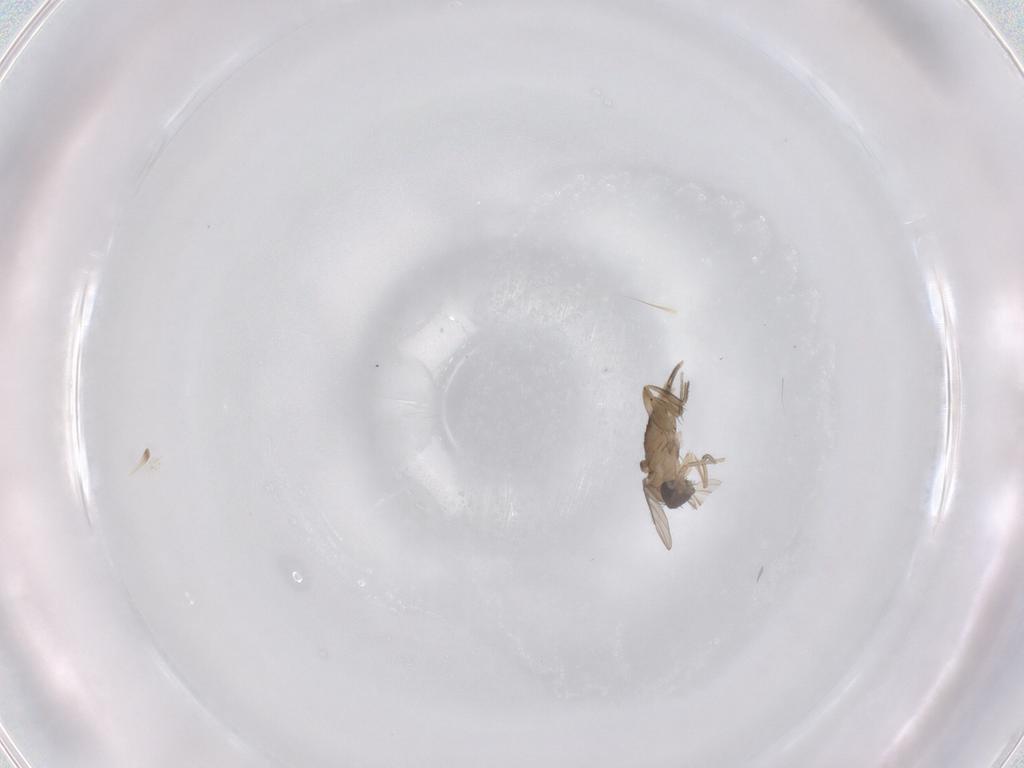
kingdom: Animalia
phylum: Arthropoda
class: Insecta
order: Diptera
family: Phoridae
